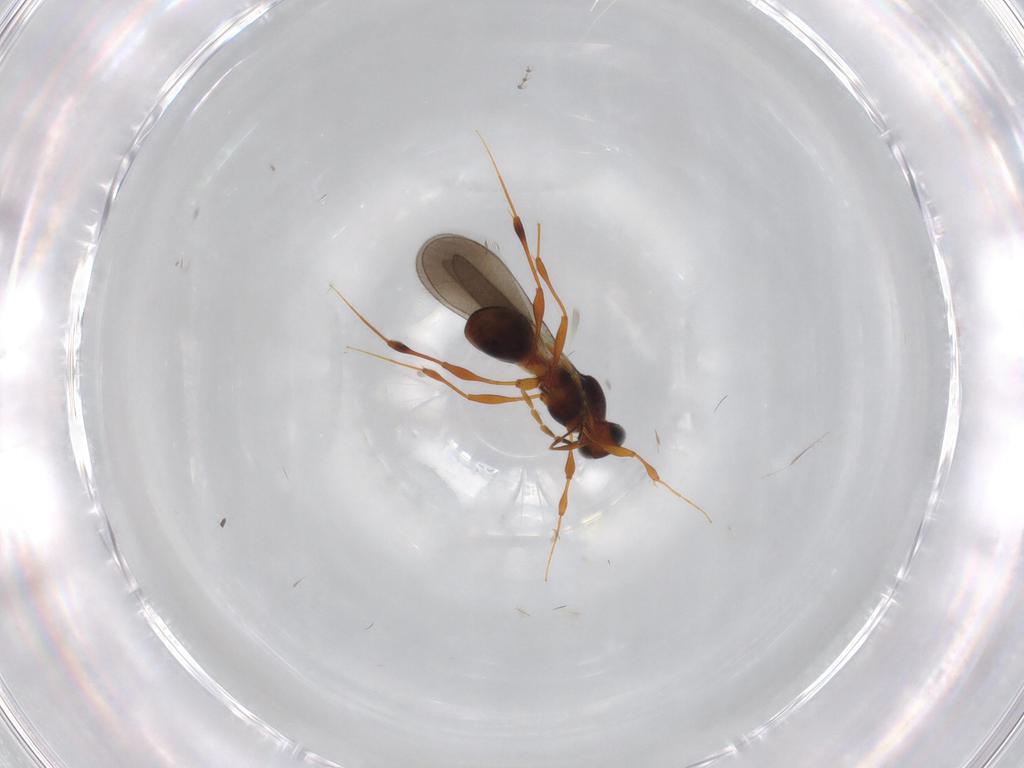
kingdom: Animalia
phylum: Arthropoda
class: Insecta
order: Hymenoptera
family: Platygastridae
